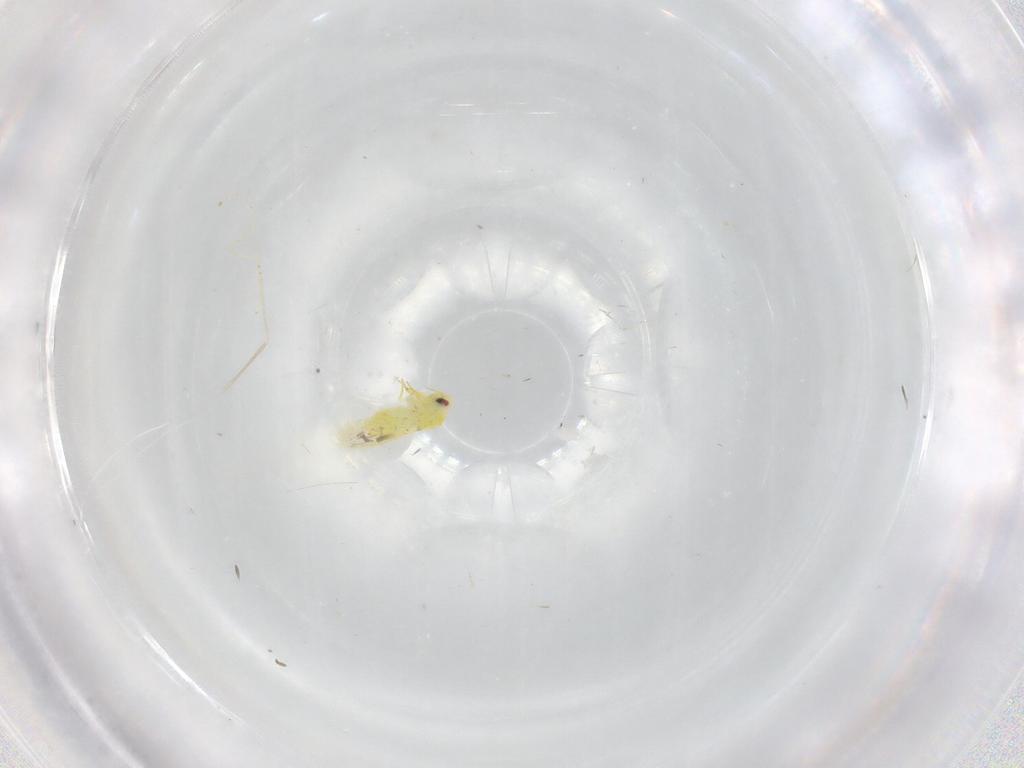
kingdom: Animalia
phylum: Arthropoda
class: Insecta
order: Hemiptera
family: Aleyrodidae
